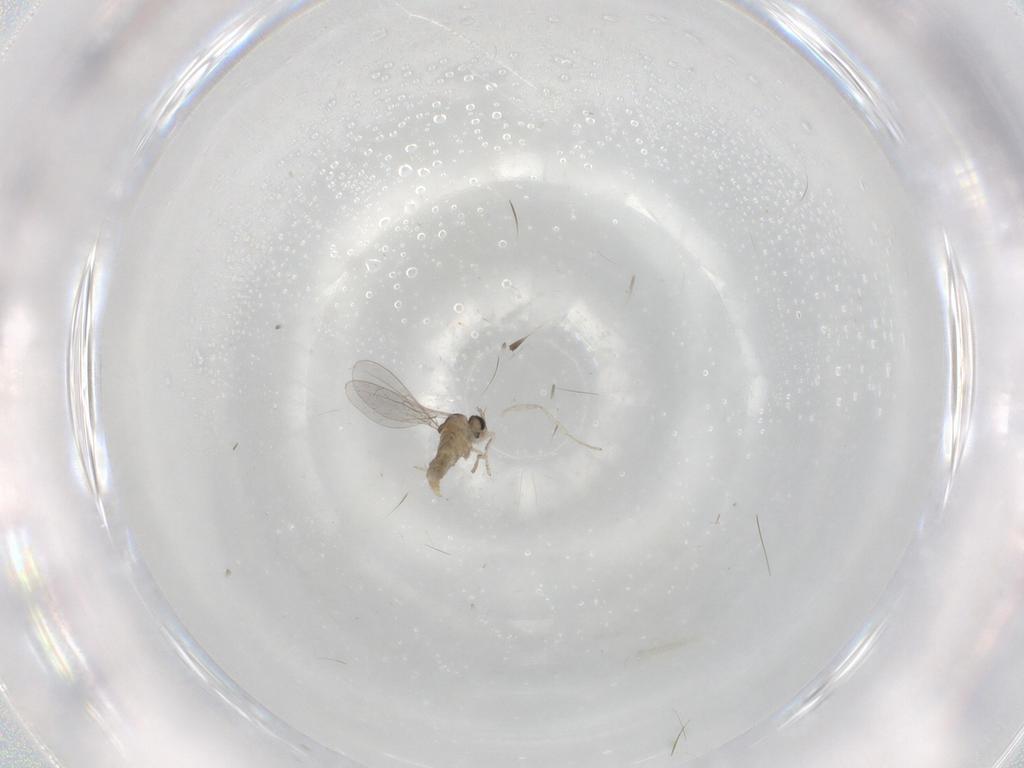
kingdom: Animalia
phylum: Arthropoda
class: Insecta
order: Diptera
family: Cecidomyiidae
